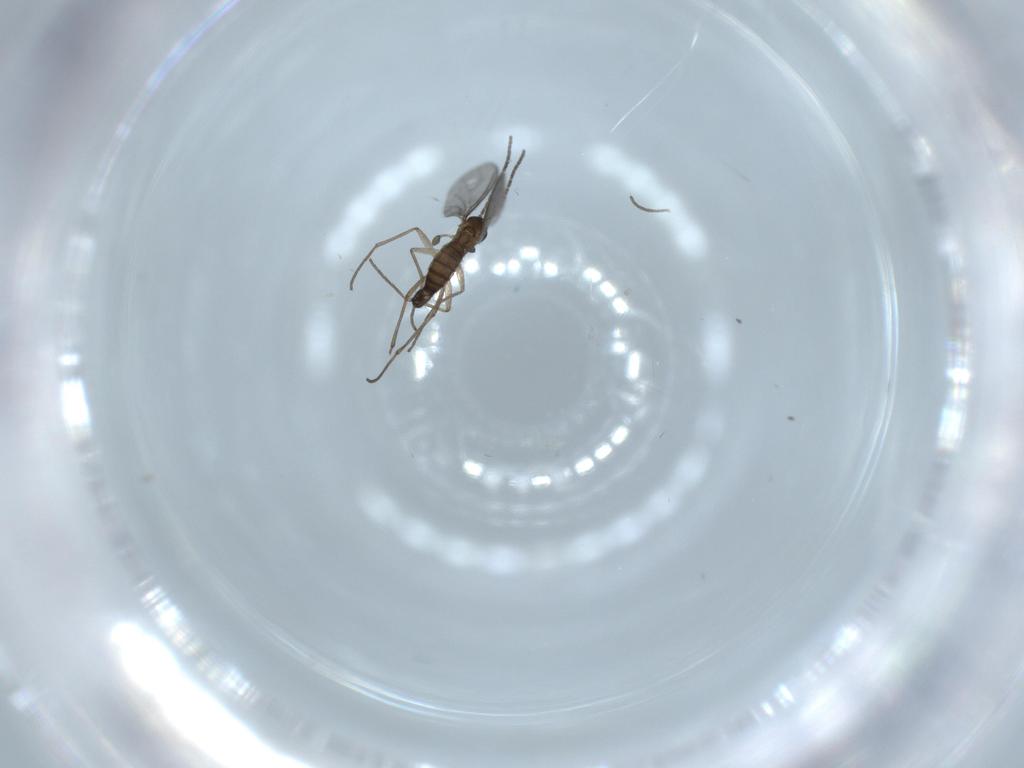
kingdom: Animalia
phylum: Arthropoda
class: Insecta
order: Diptera
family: Sciaridae
